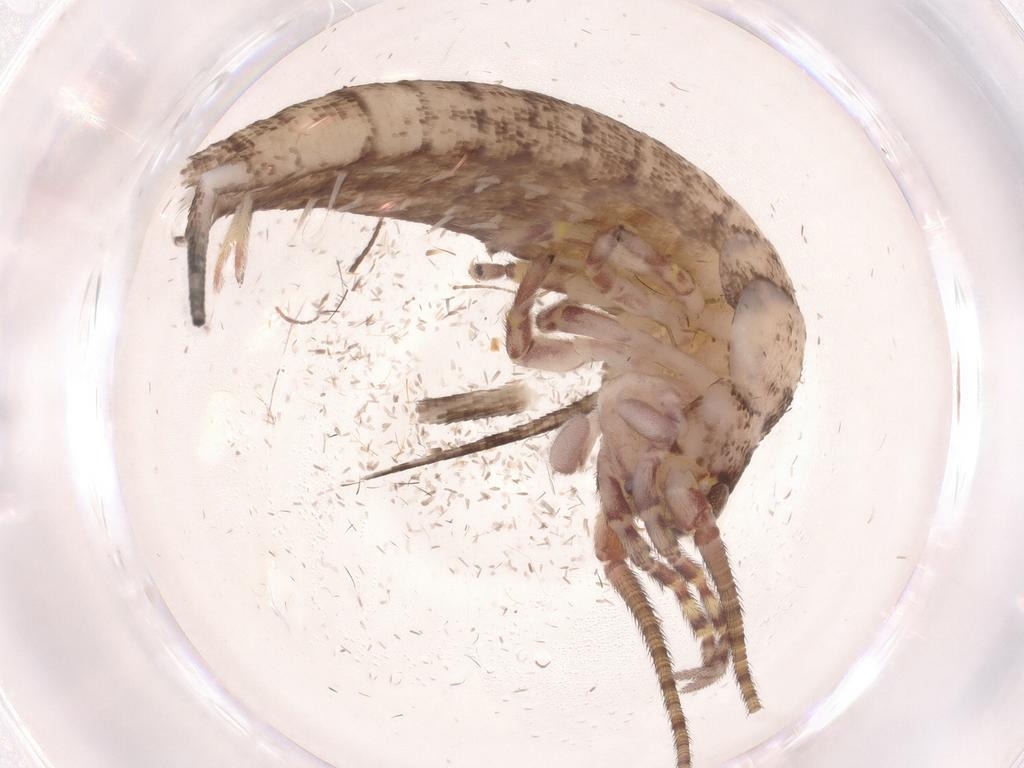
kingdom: Animalia
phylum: Arthropoda
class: Insecta
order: Archaeognatha
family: Machilidae
